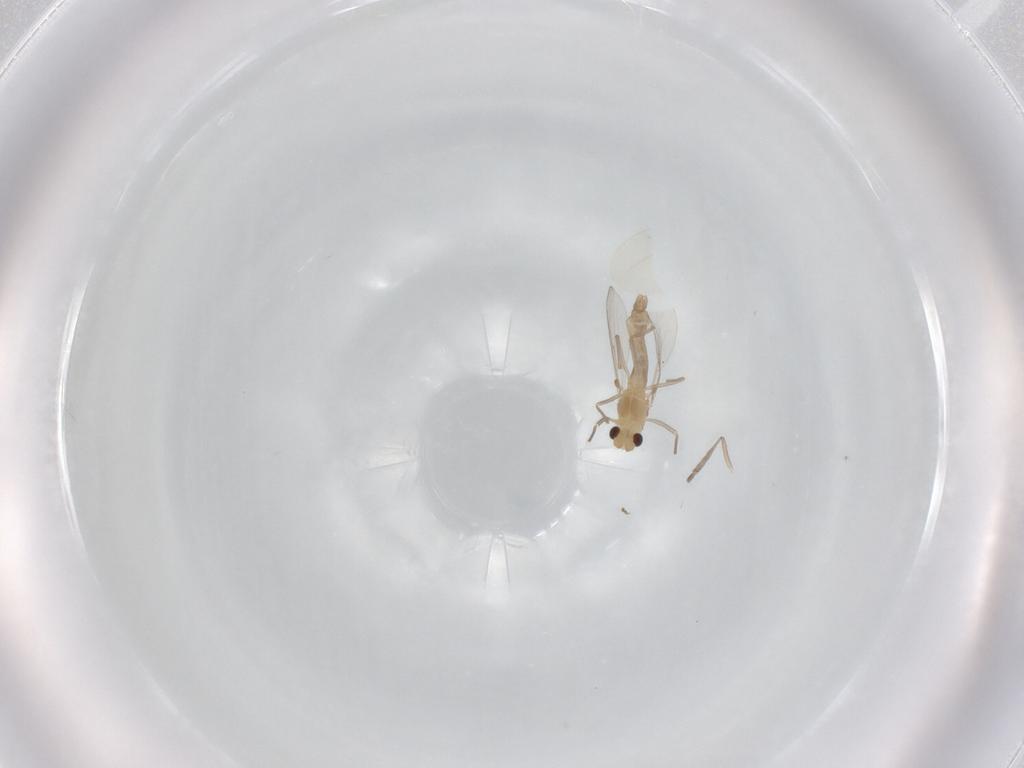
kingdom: Animalia
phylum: Arthropoda
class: Insecta
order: Diptera
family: Chironomidae
